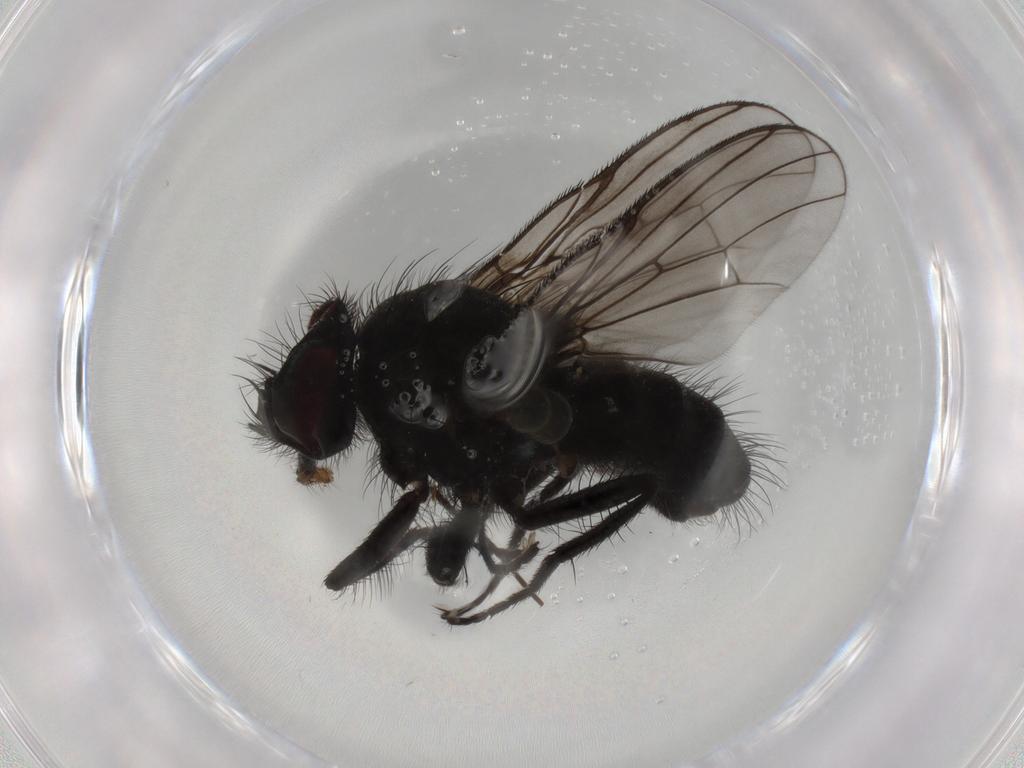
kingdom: Animalia
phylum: Arthropoda
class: Insecta
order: Diptera
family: Muscidae
